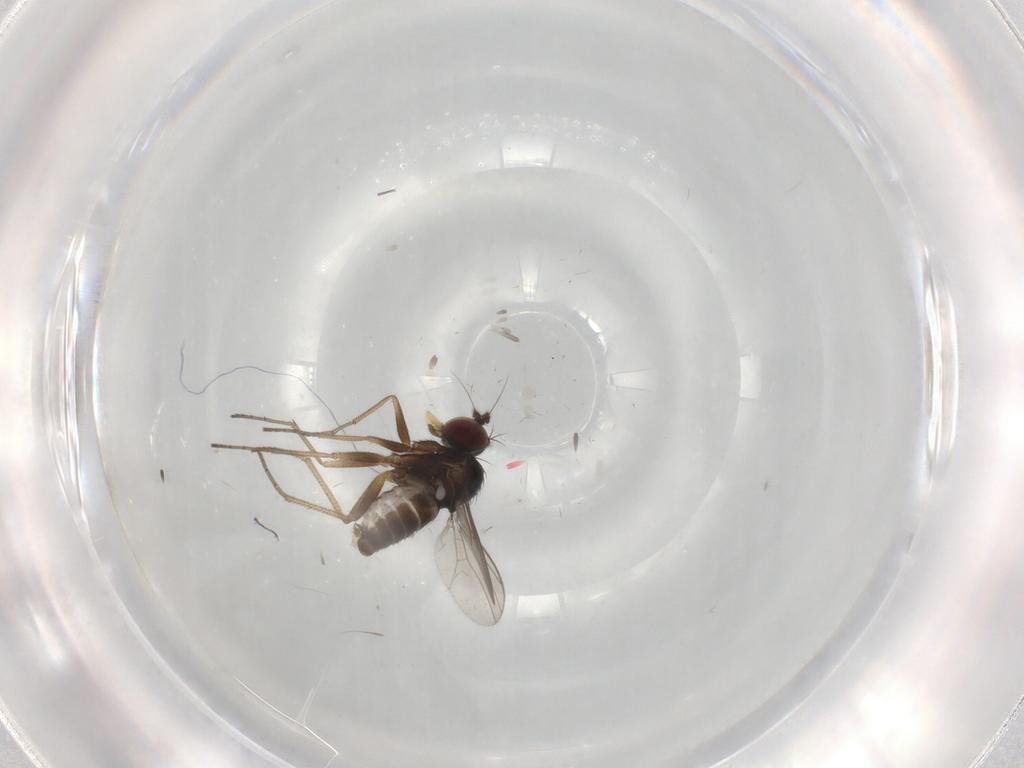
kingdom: Animalia
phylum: Arthropoda
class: Insecta
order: Diptera
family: Dolichopodidae
